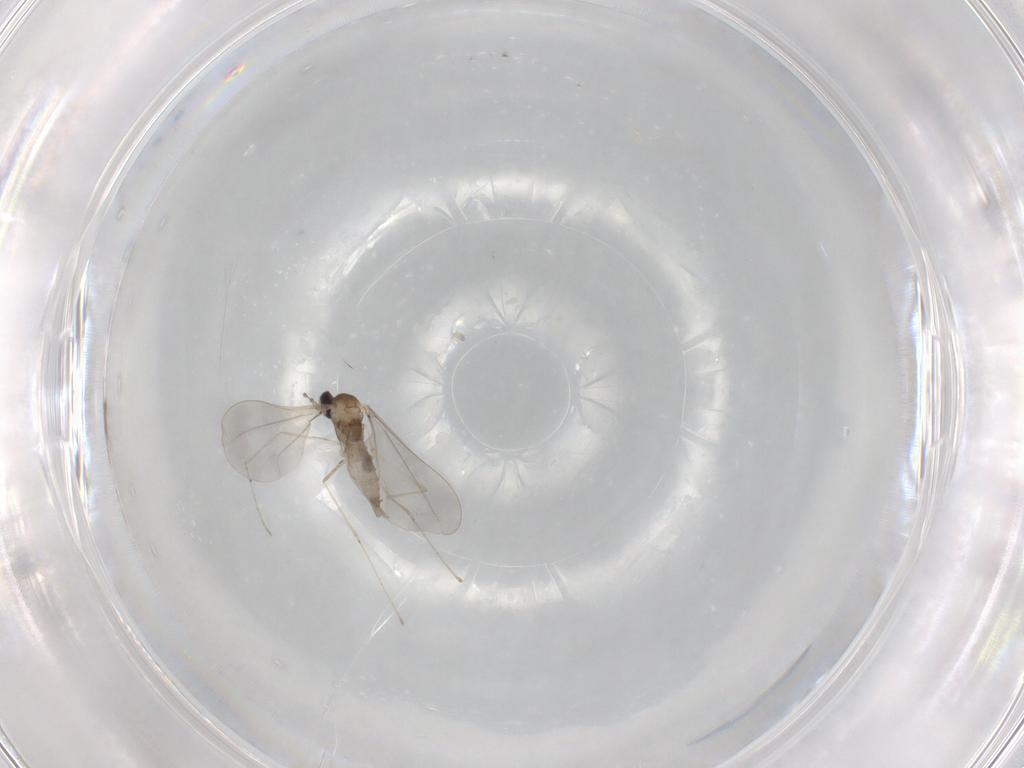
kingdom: Animalia
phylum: Arthropoda
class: Insecta
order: Diptera
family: Cecidomyiidae
